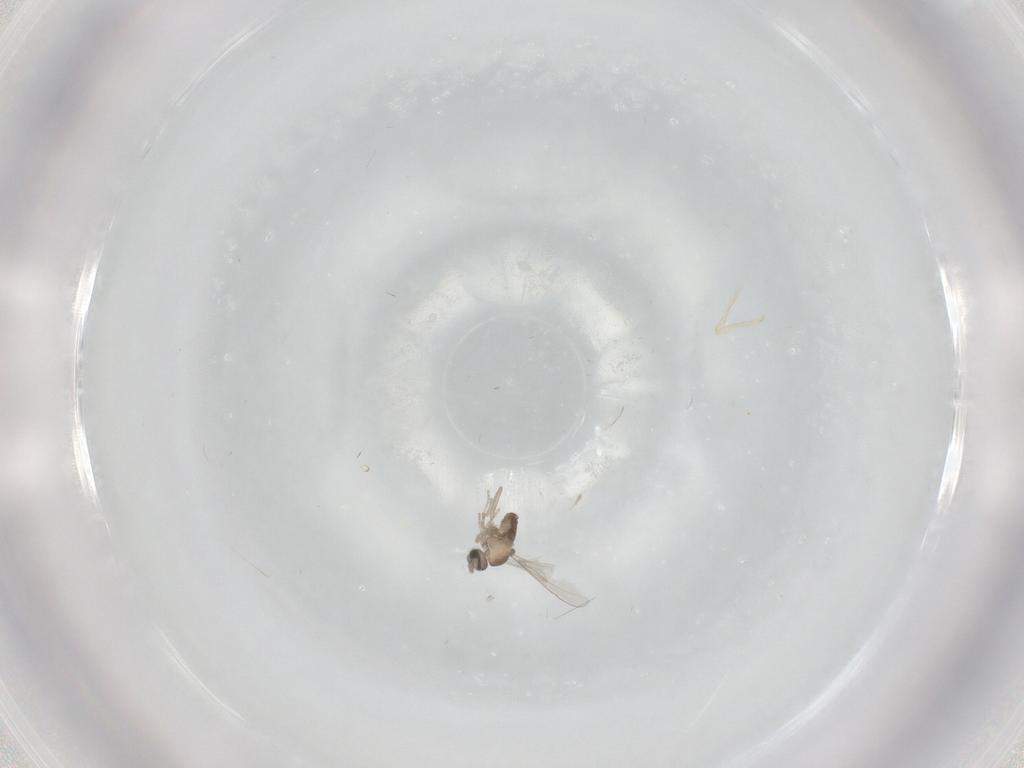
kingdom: Animalia
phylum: Arthropoda
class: Insecta
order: Diptera
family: Cecidomyiidae
